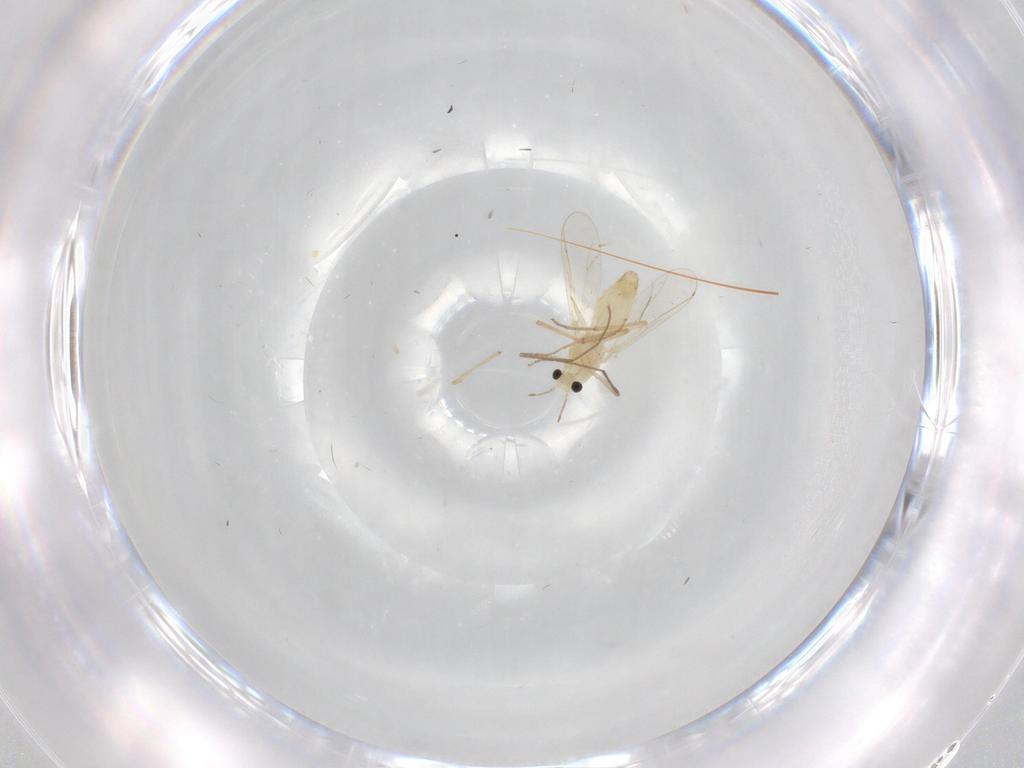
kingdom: Animalia
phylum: Arthropoda
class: Insecta
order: Diptera
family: Chironomidae
